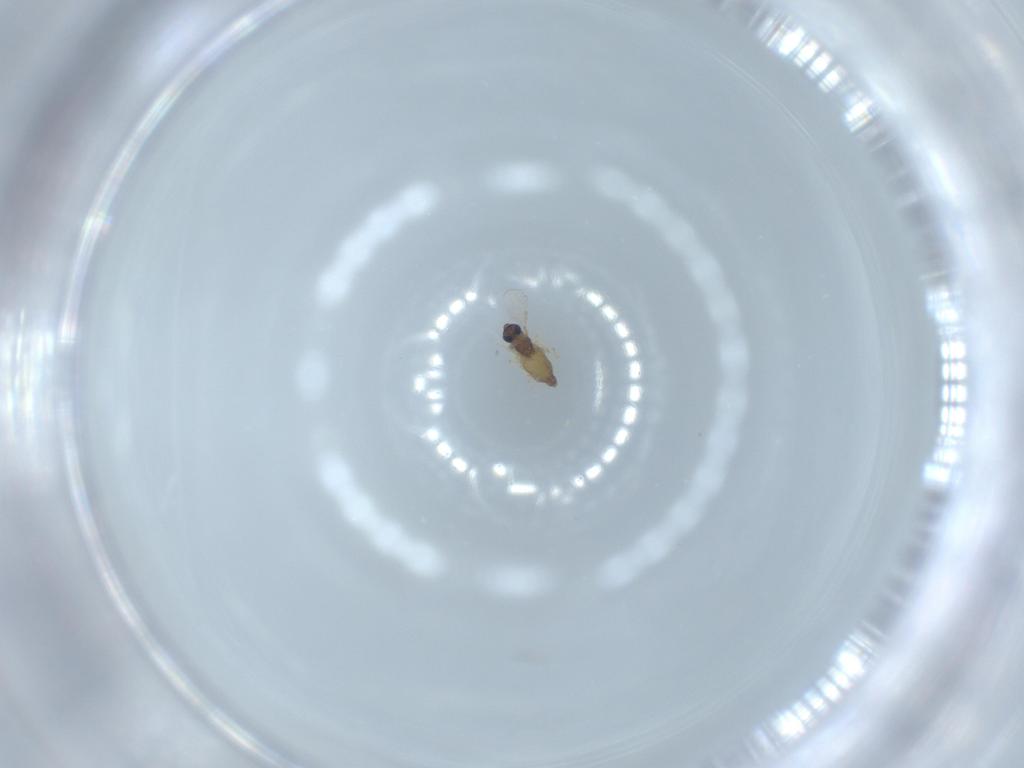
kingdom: Animalia
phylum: Arthropoda
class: Insecta
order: Diptera
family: Chironomidae
